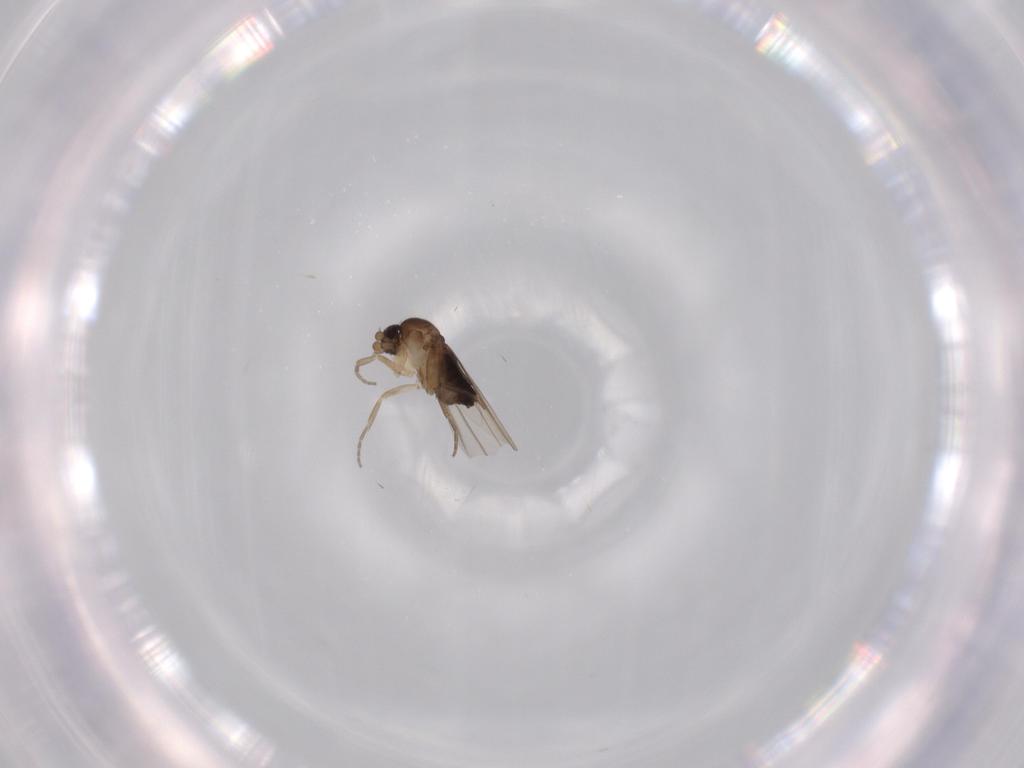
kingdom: Animalia
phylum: Arthropoda
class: Insecta
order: Diptera
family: Phoridae
